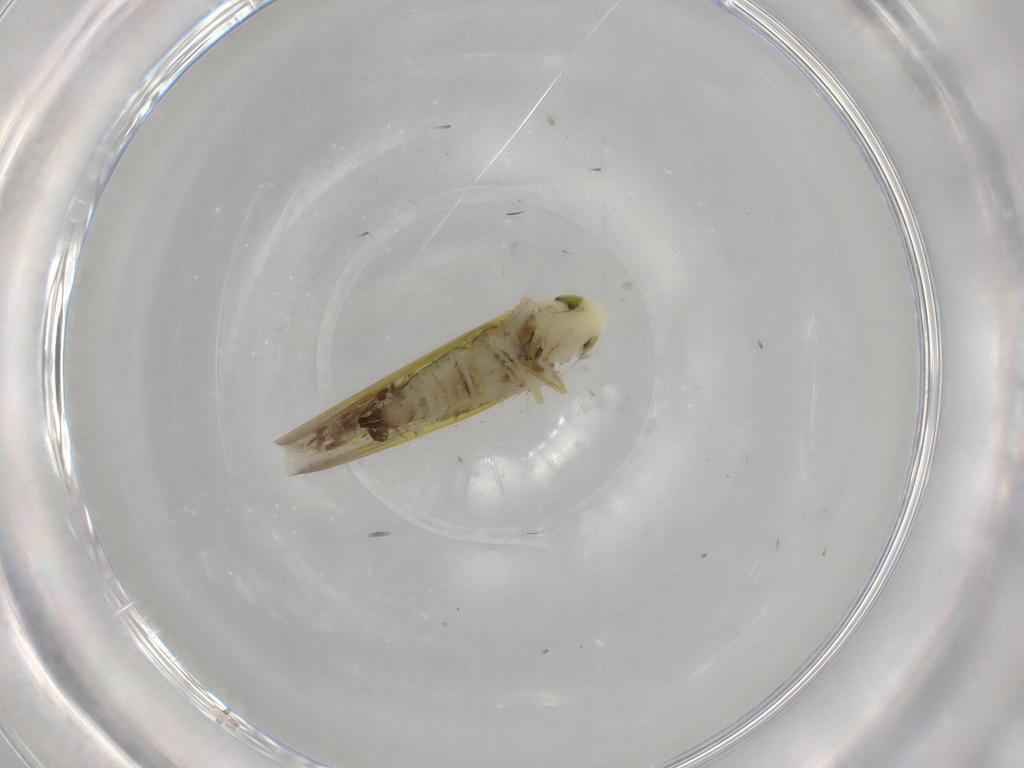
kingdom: Animalia
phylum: Arthropoda
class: Insecta
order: Hemiptera
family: Cicadellidae
